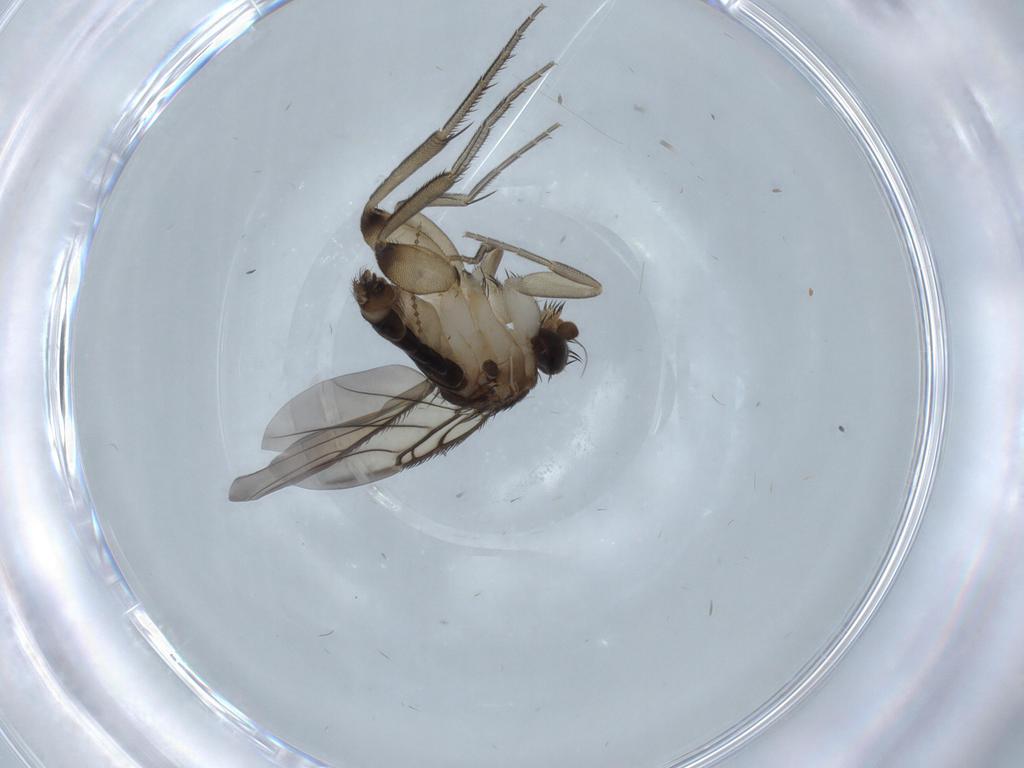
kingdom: Animalia
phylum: Arthropoda
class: Insecta
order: Diptera
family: Phoridae
